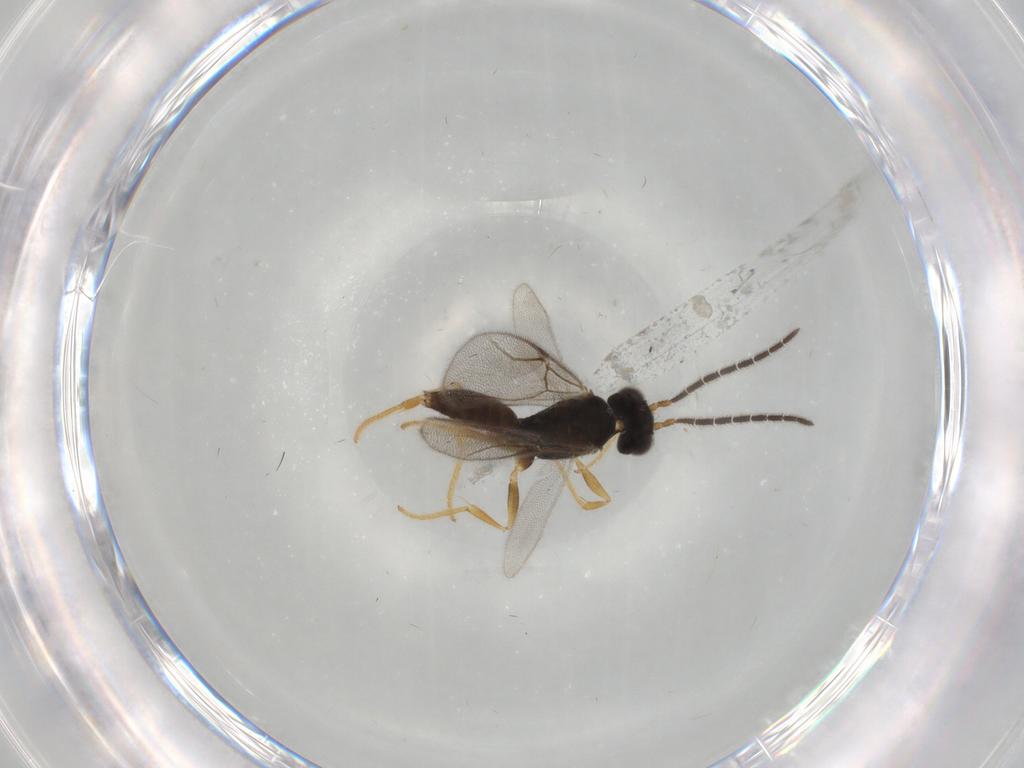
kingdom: Animalia
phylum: Arthropoda
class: Insecta
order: Hymenoptera
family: Dryinidae
